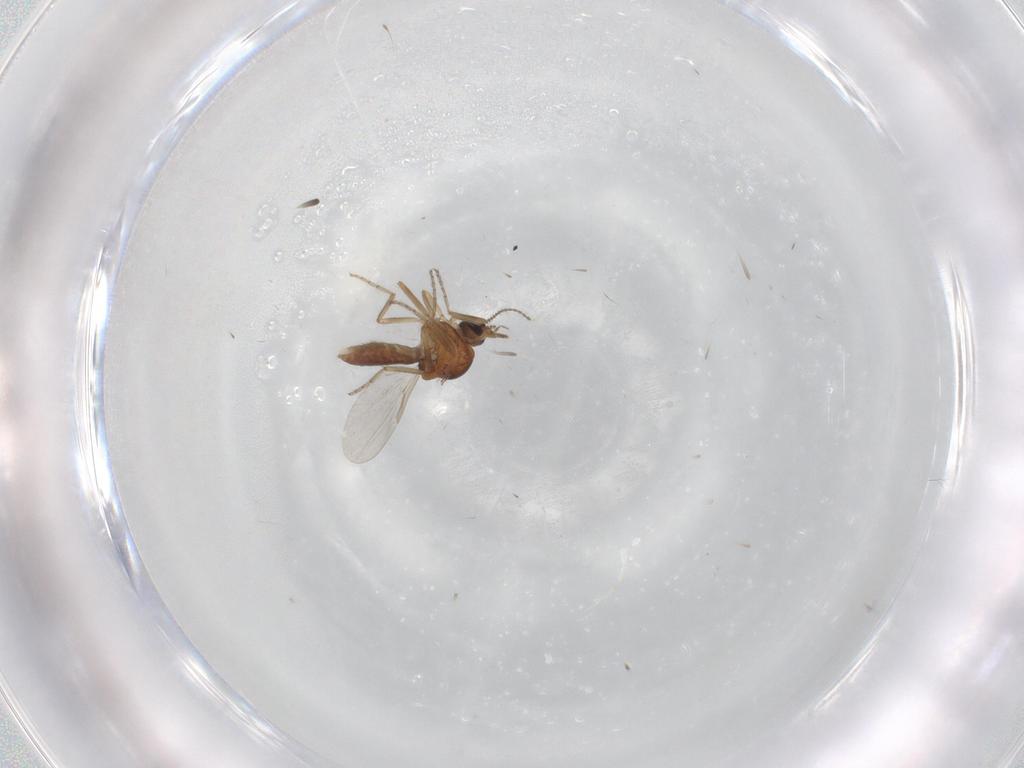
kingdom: Animalia
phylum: Arthropoda
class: Insecta
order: Diptera
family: Ceratopogonidae
